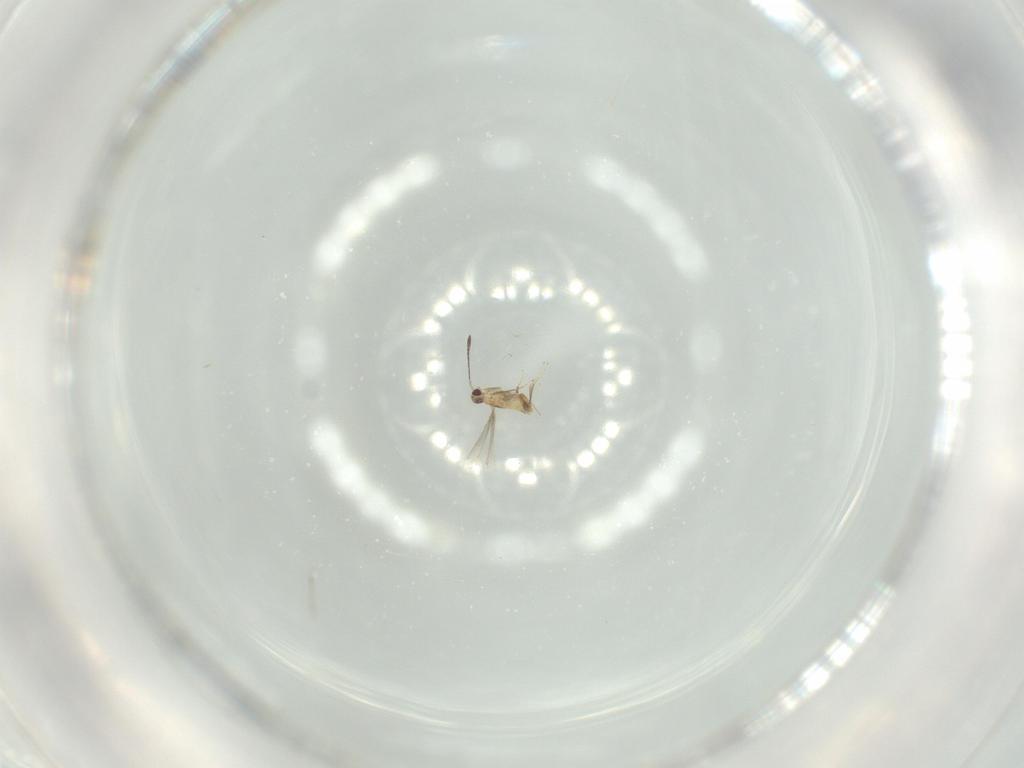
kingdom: Animalia
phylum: Arthropoda
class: Insecta
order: Hymenoptera
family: Mymaridae
